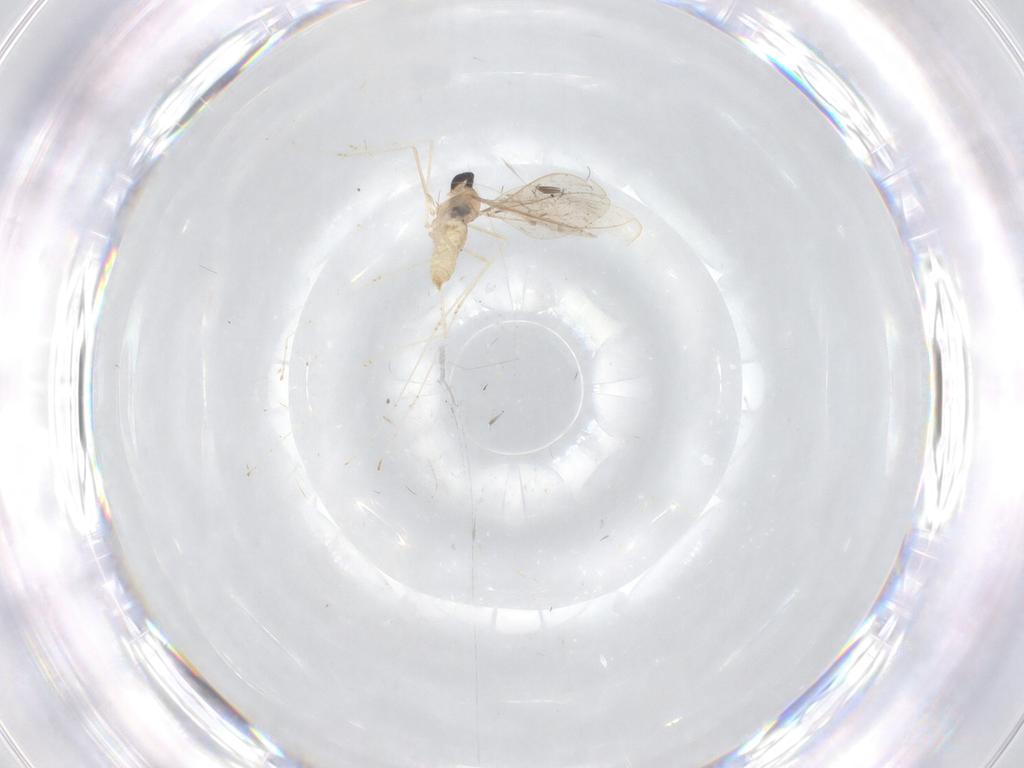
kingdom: Animalia
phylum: Arthropoda
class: Insecta
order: Diptera
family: Cecidomyiidae
